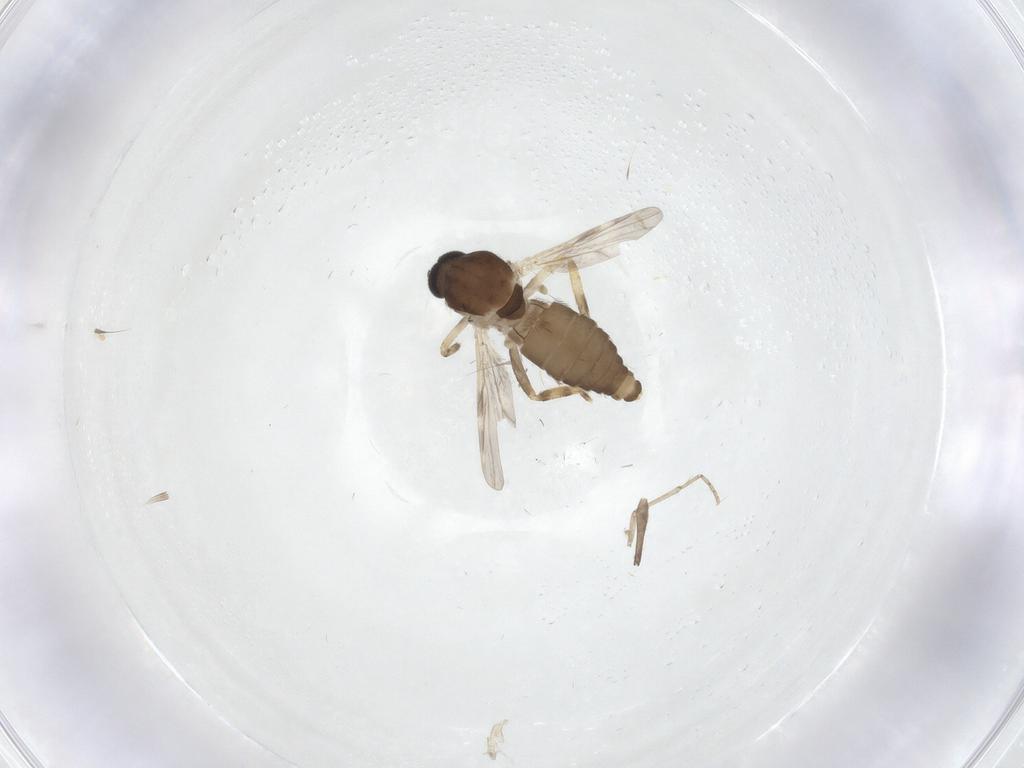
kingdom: Animalia
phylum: Arthropoda
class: Insecta
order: Diptera
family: Ceratopogonidae
